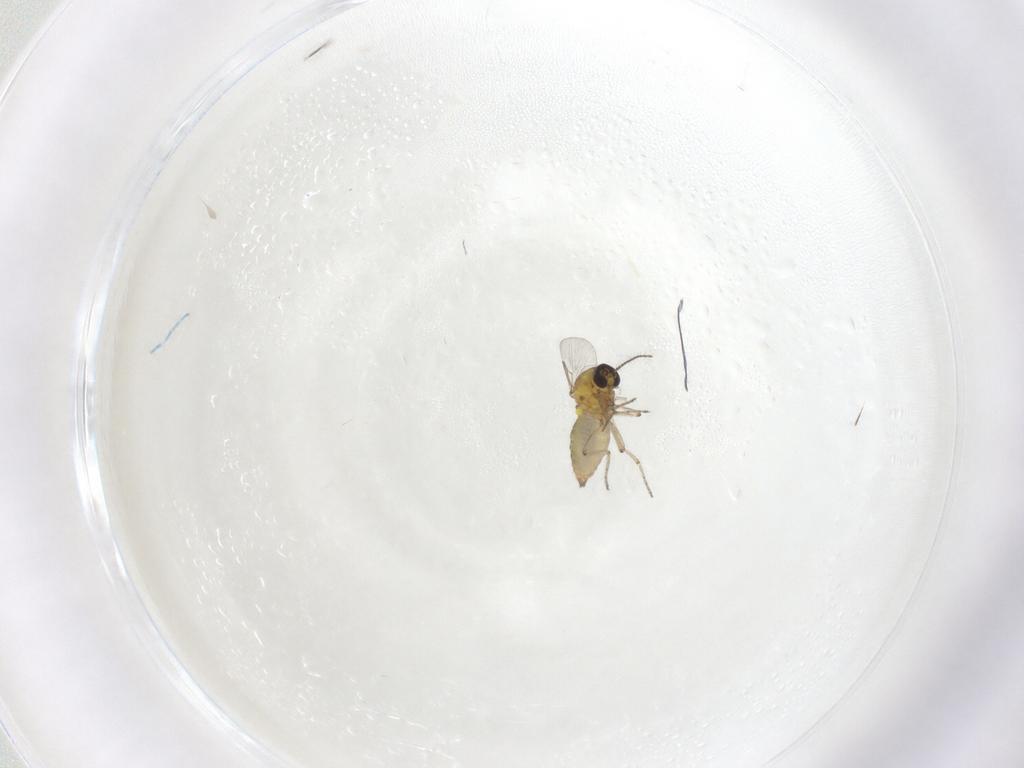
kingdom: Animalia
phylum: Arthropoda
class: Insecta
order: Diptera
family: Ceratopogonidae
